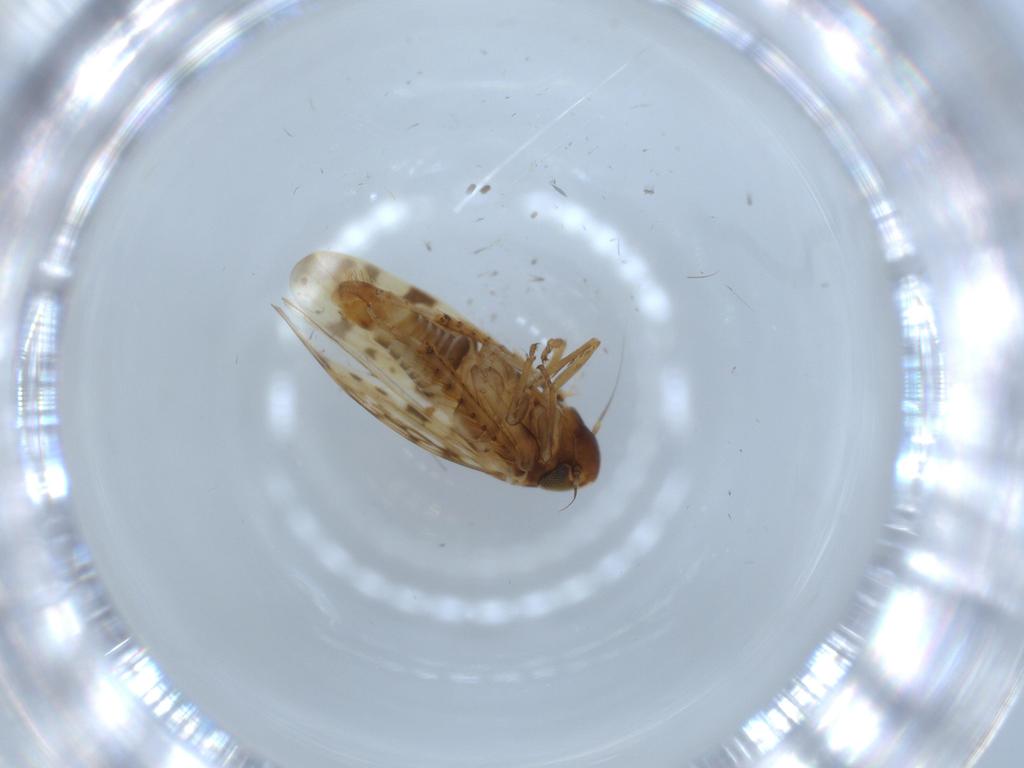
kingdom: Animalia
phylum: Arthropoda
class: Insecta
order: Hemiptera
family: Cicadellidae
